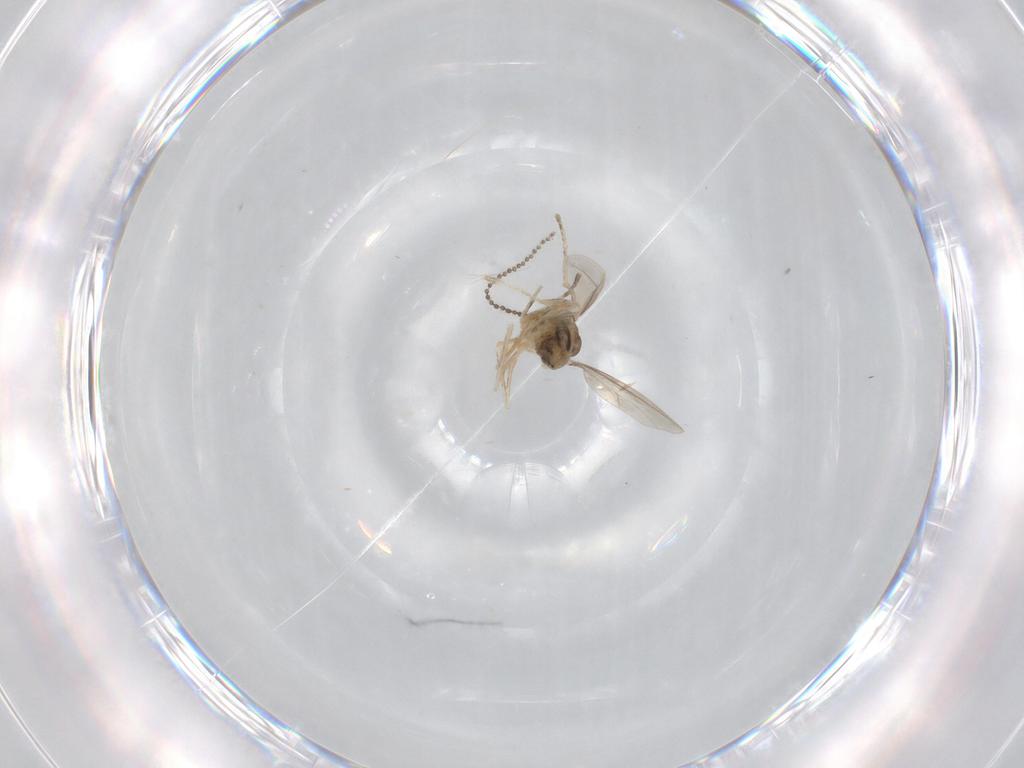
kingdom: Animalia
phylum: Arthropoda
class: Insecta
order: Diptera
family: Cecidomyiidae
